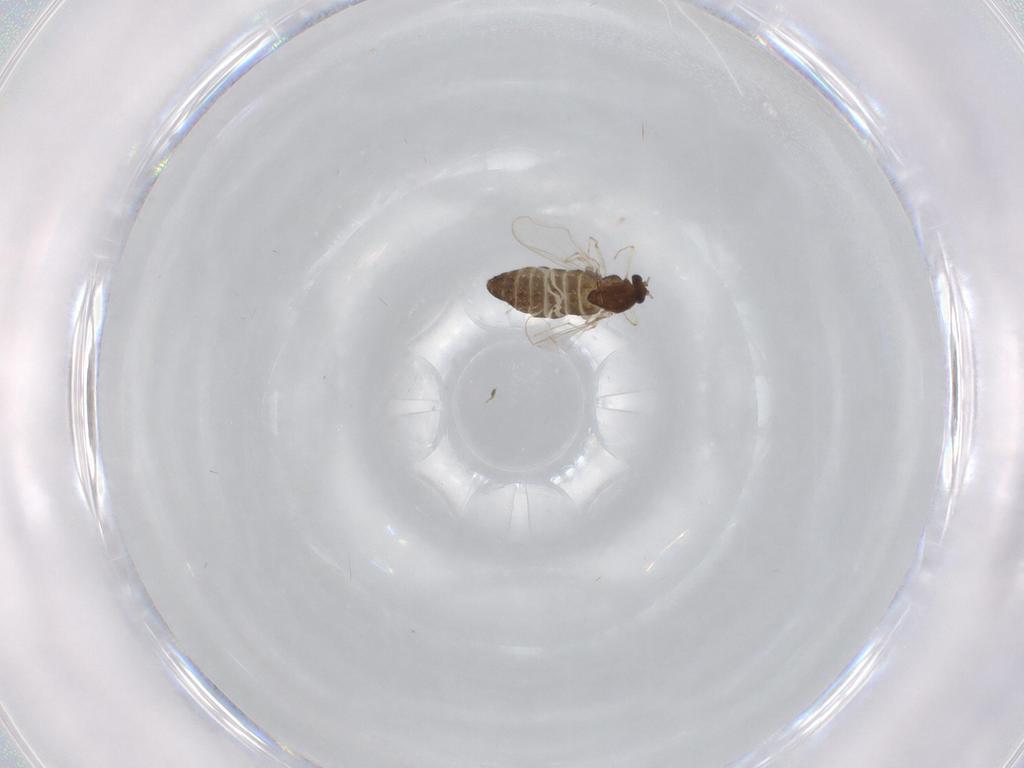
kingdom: Animalia
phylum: Arthropoda
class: Insecta
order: Diptera
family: Chironomidae
